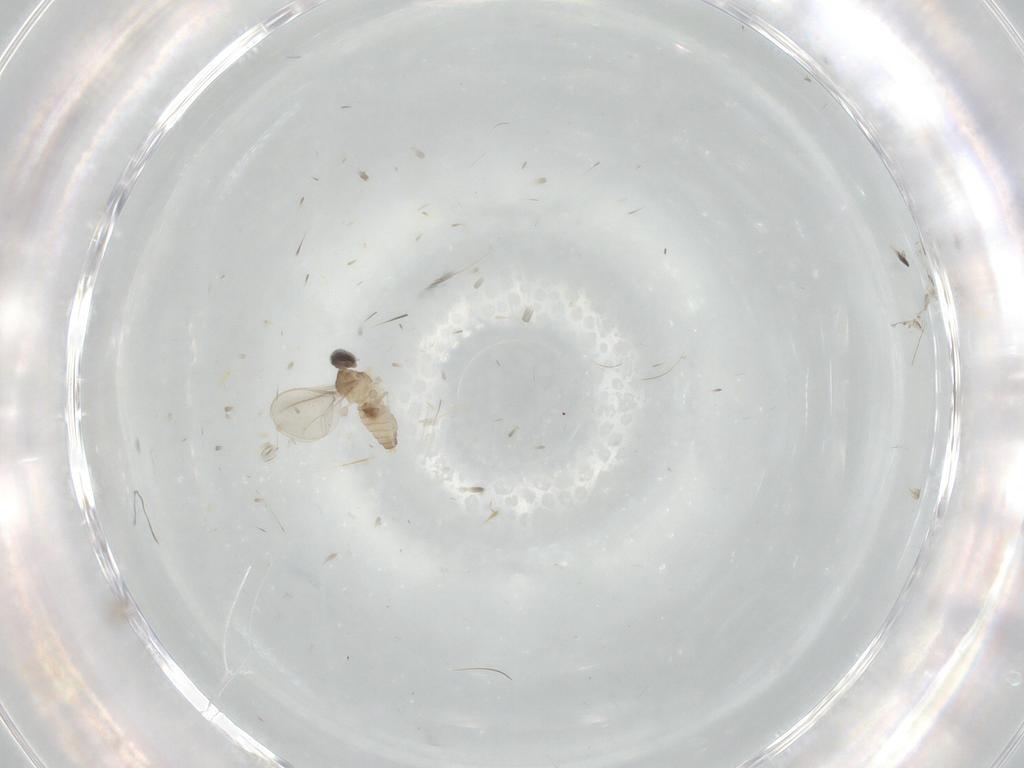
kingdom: Animalia
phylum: Arthropoda
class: Insecta
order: Diptera
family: Cecidomyiidae
